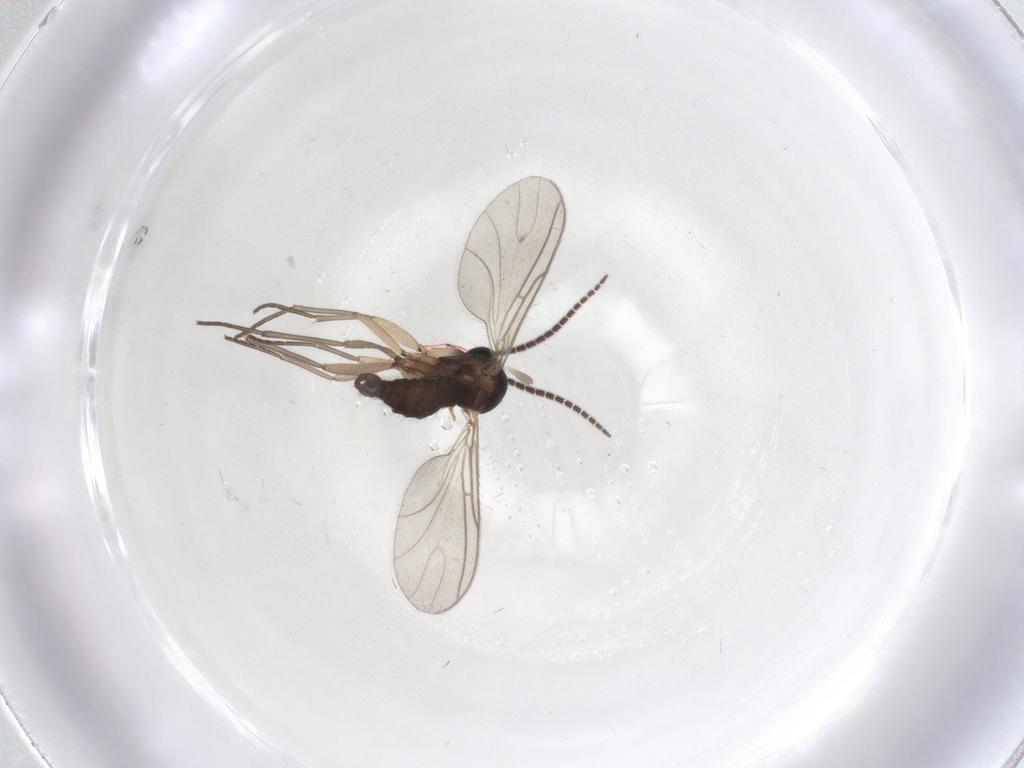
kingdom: Animalia
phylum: Arthropoda
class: Insecta
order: Diptera
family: Sciaridae
